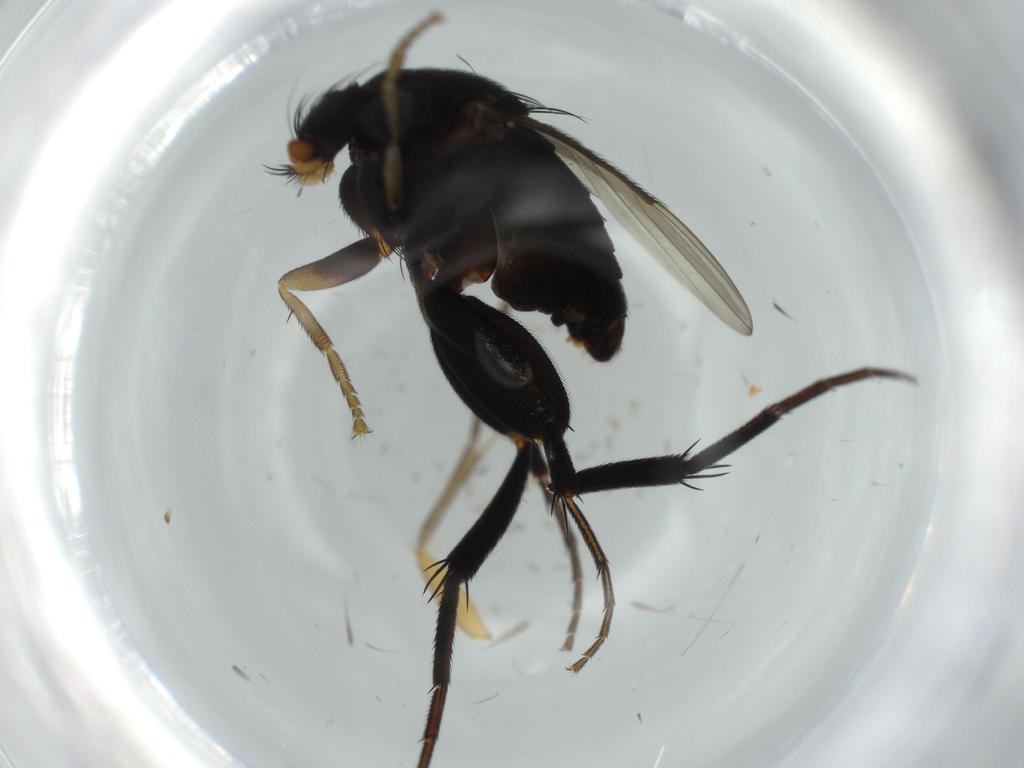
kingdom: Animalia
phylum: Arthropoda
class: Insecta
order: Diptera
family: Phoridae
